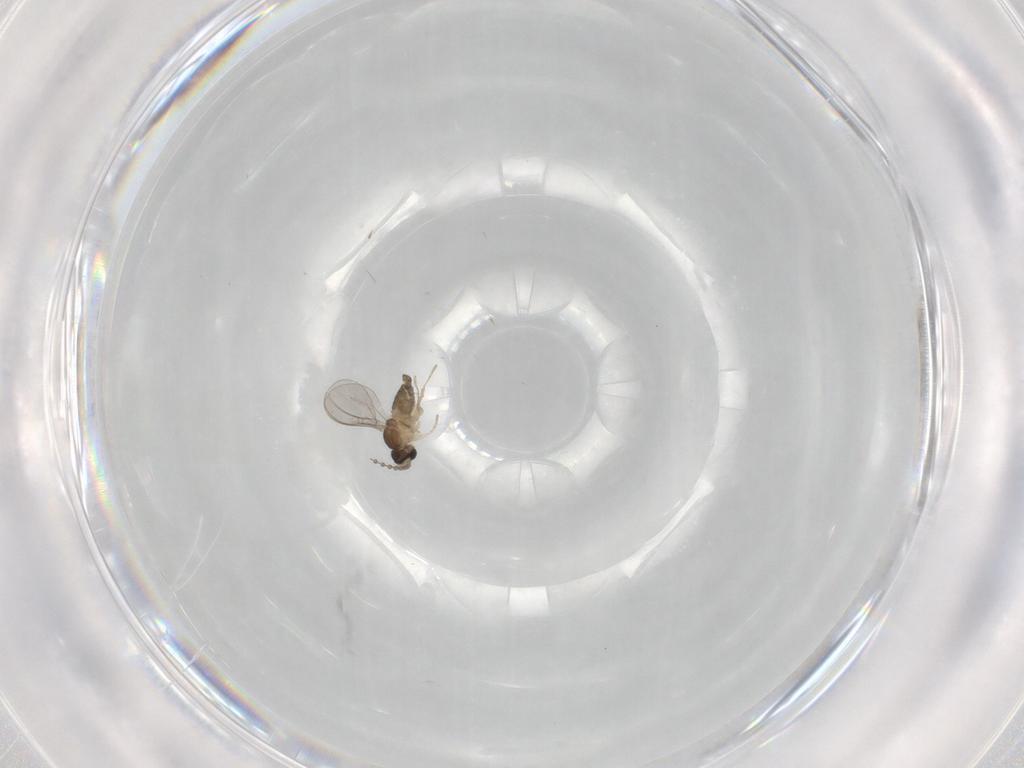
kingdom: Animalia
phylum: Arthropoda
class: Insecta
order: Diptera
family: Cecidomyiidae
